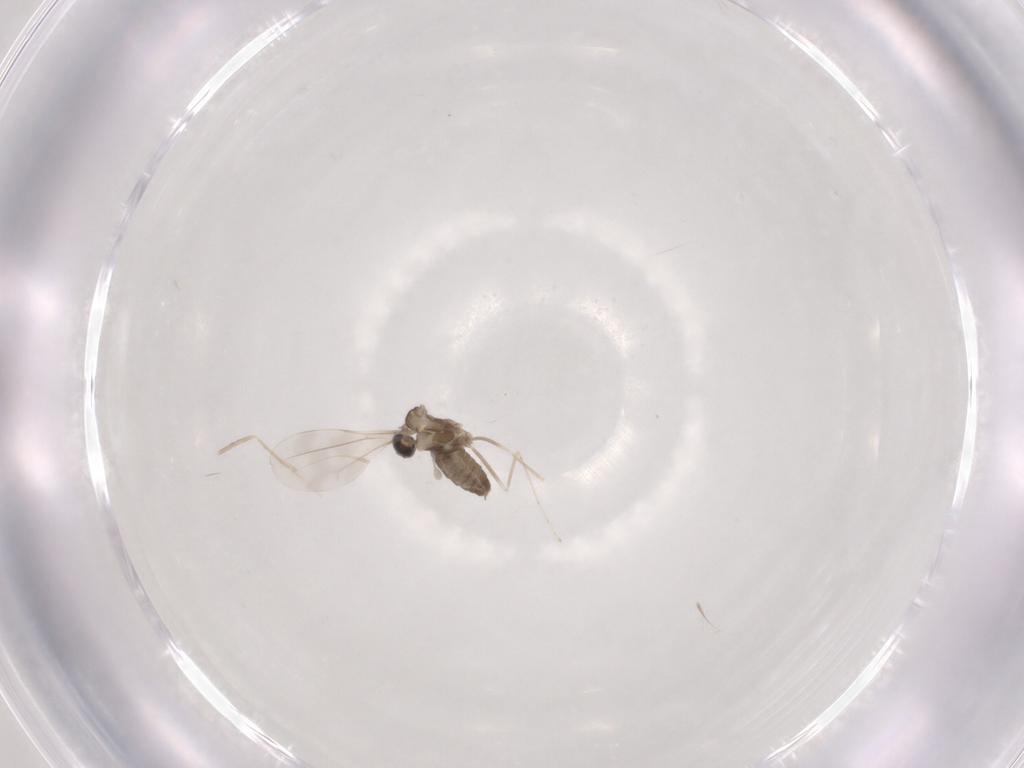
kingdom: Animalia
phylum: Arthropoda
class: Insecta
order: Diptera
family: Cecidomyiidae
